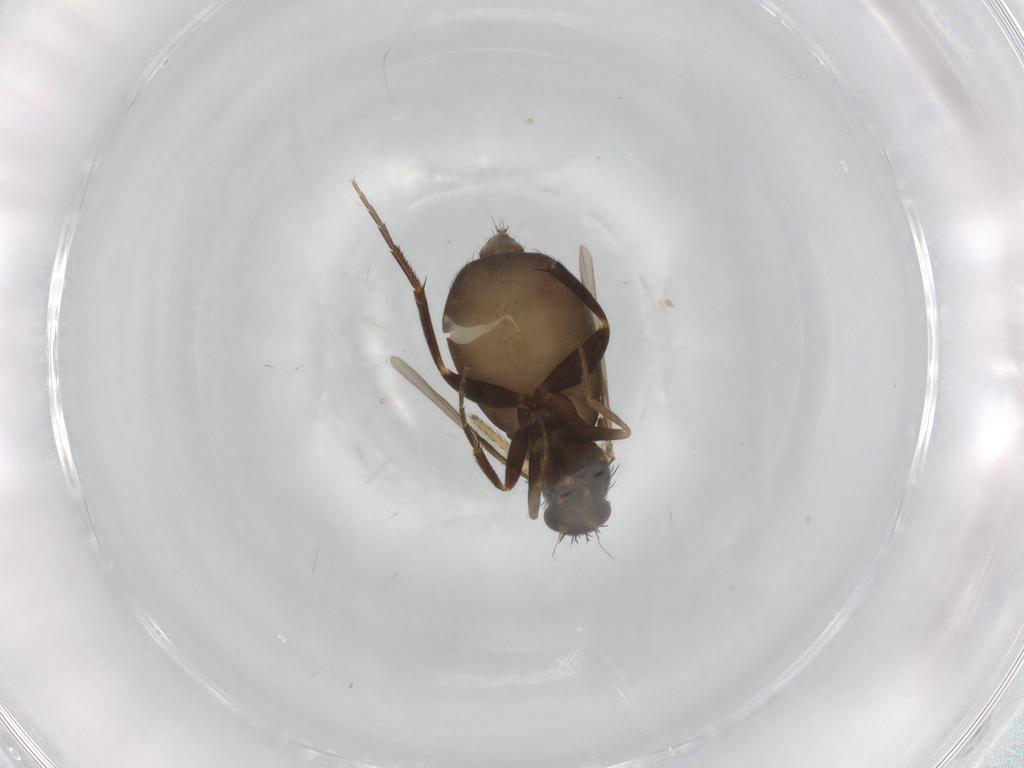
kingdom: Animalia
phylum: Arthropoda
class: Insecta
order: Diptera
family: Phoridae
